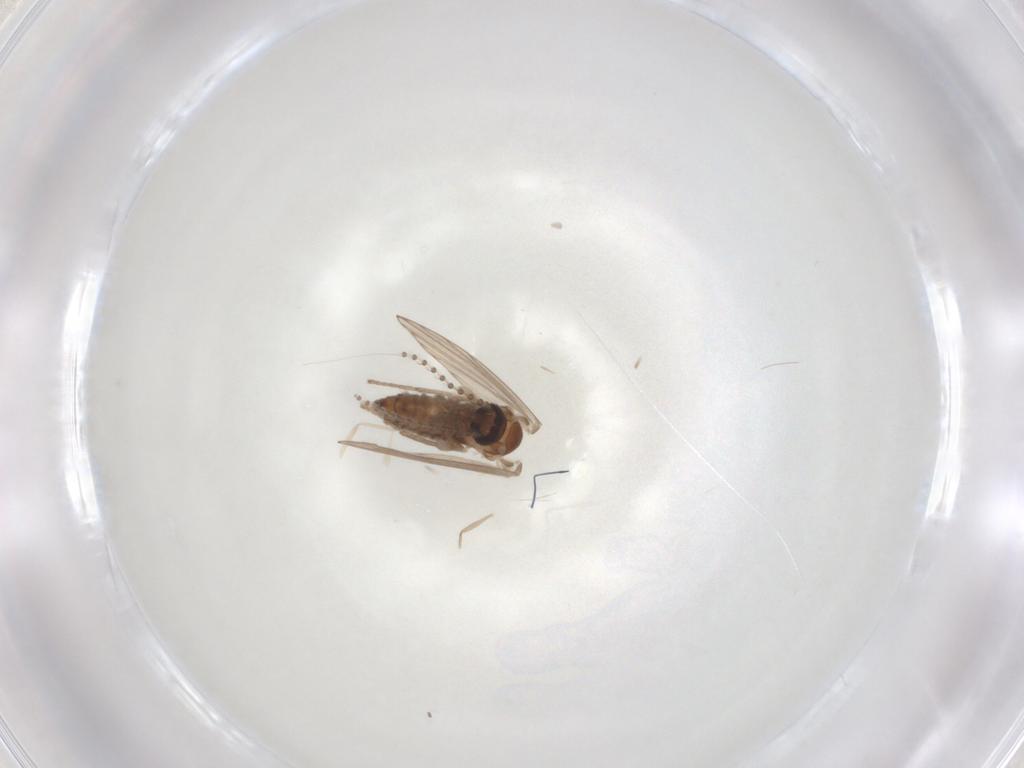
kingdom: Animalia
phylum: Arthropoda
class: Insecta
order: Diptera
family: Psychodidae
